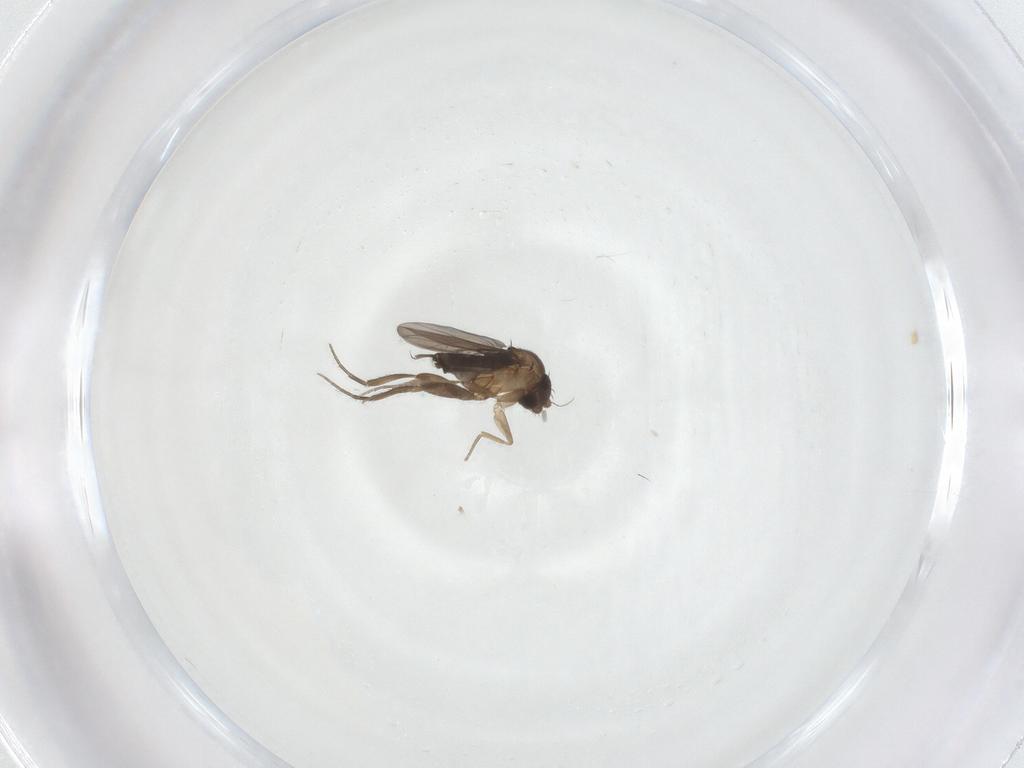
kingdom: Animalia
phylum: Arthropoda
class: Insecta
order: Diptera
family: Phoridae
